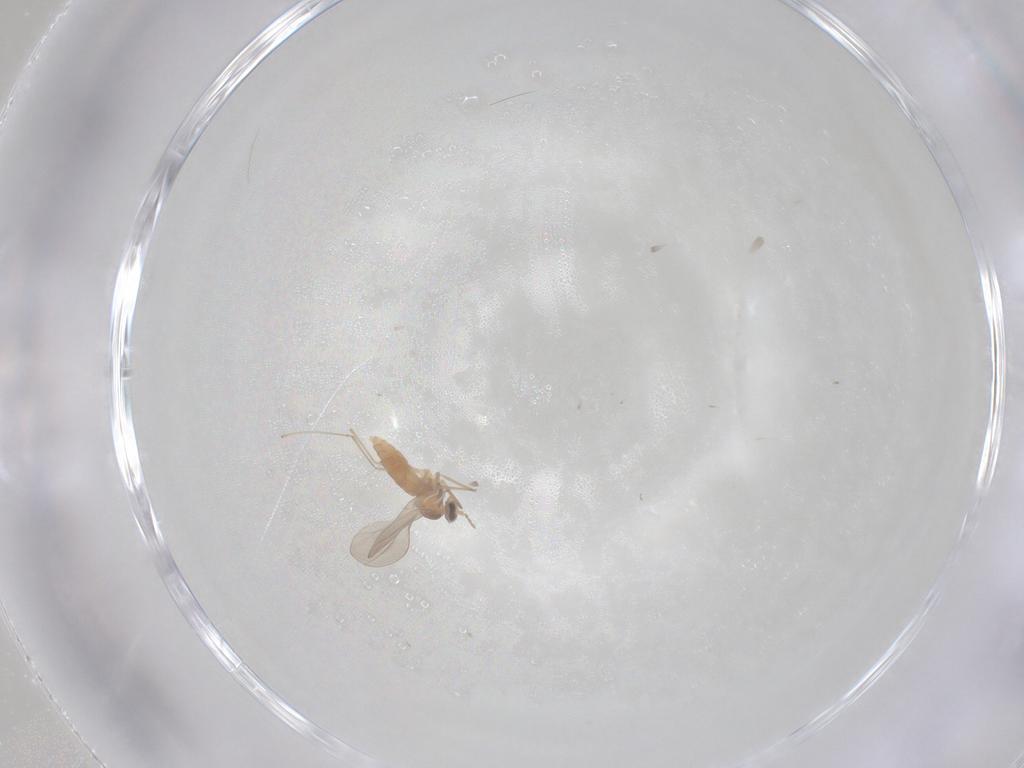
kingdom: Animalia
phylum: Arthropoda
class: Insecta
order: Diptera
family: Cecidomyiidae
